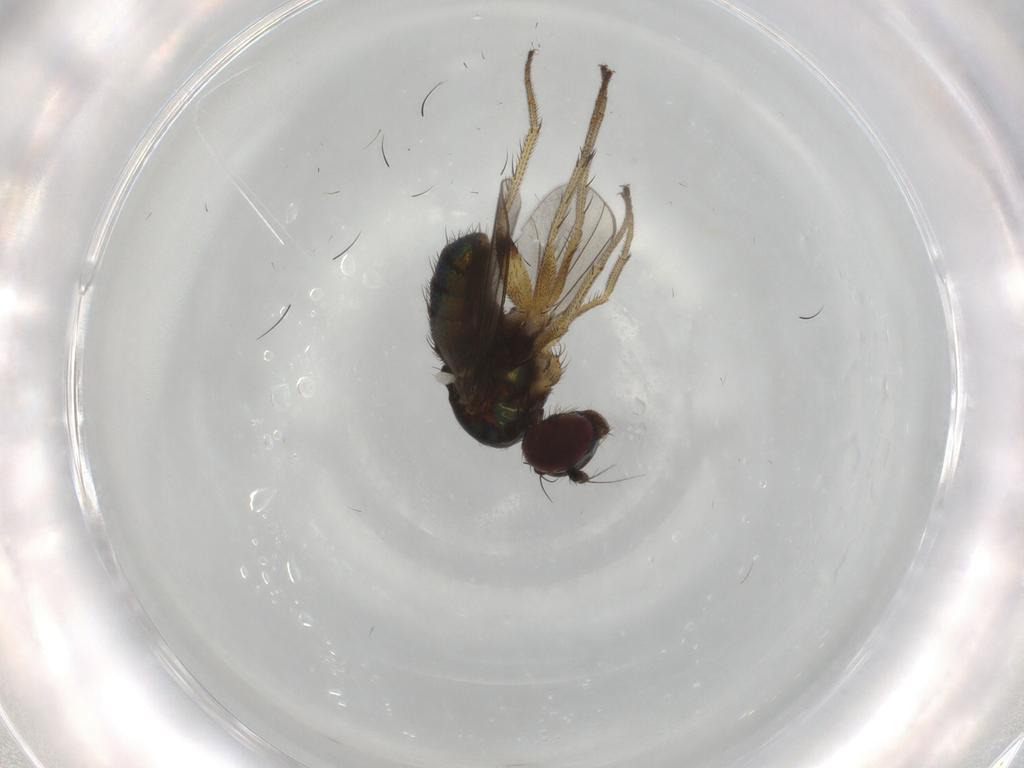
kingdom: Animalia
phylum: Arthropoda
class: Insecta
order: Diptera
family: Dolichopodidae
